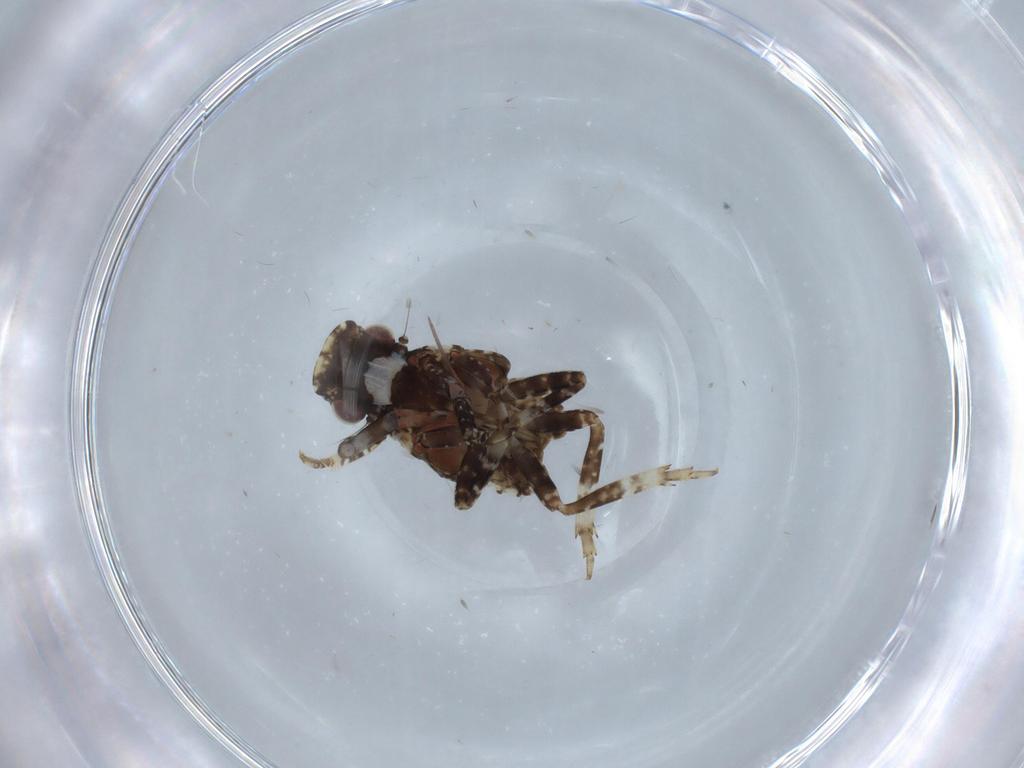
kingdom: Animalia
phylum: Arthropoda
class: Insecta
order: Hemiptera
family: Fulgoridae
